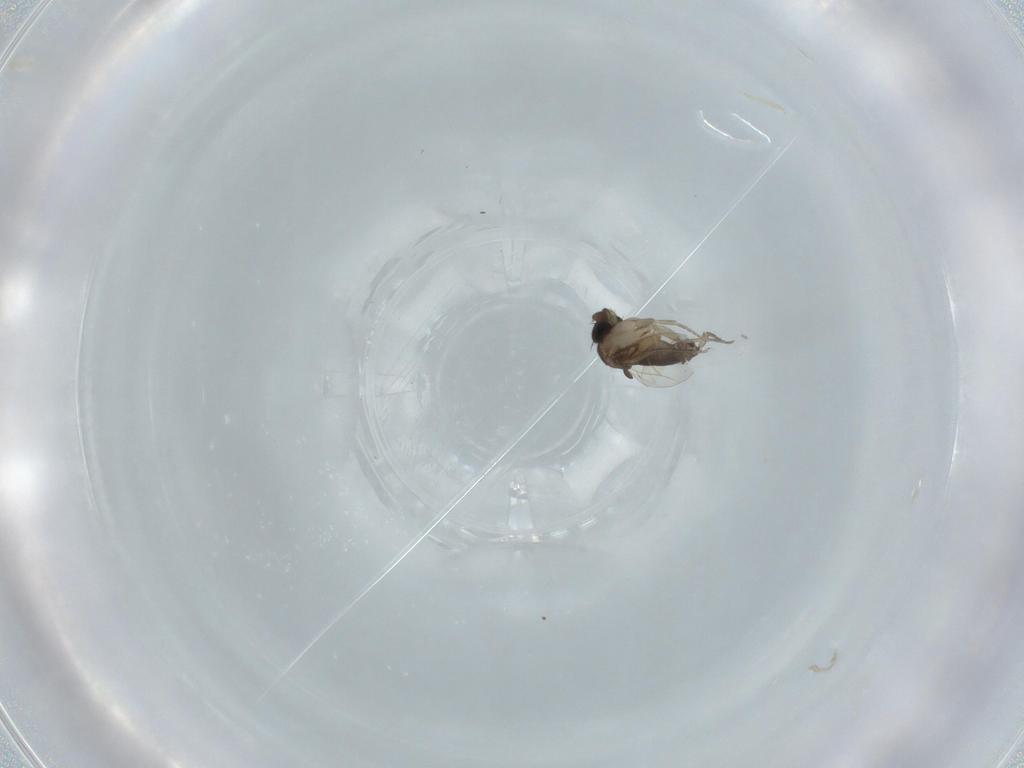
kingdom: Animalia
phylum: Arthropoda
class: Insecta
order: Diptera
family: Phoridae
